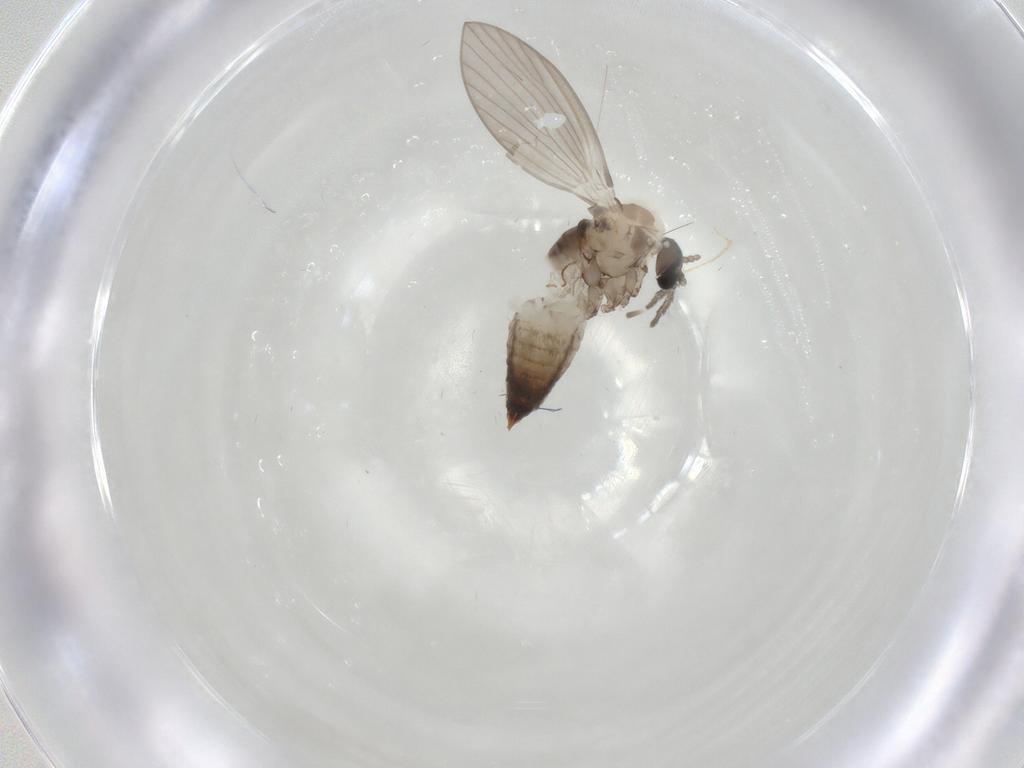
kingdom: Animalia
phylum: Arthropoda
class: Insecta
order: Diptera
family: Psychodidae
